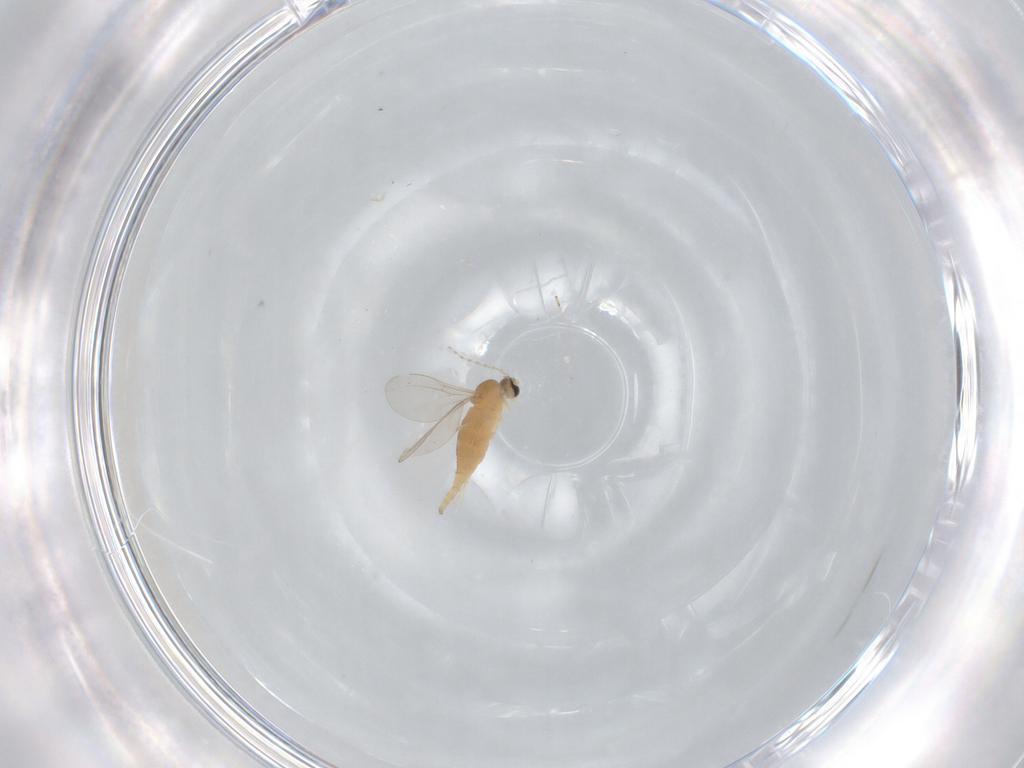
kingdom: Animalia
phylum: Arthropoda
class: Insecta
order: Diptera
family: Cecidomyiidae
